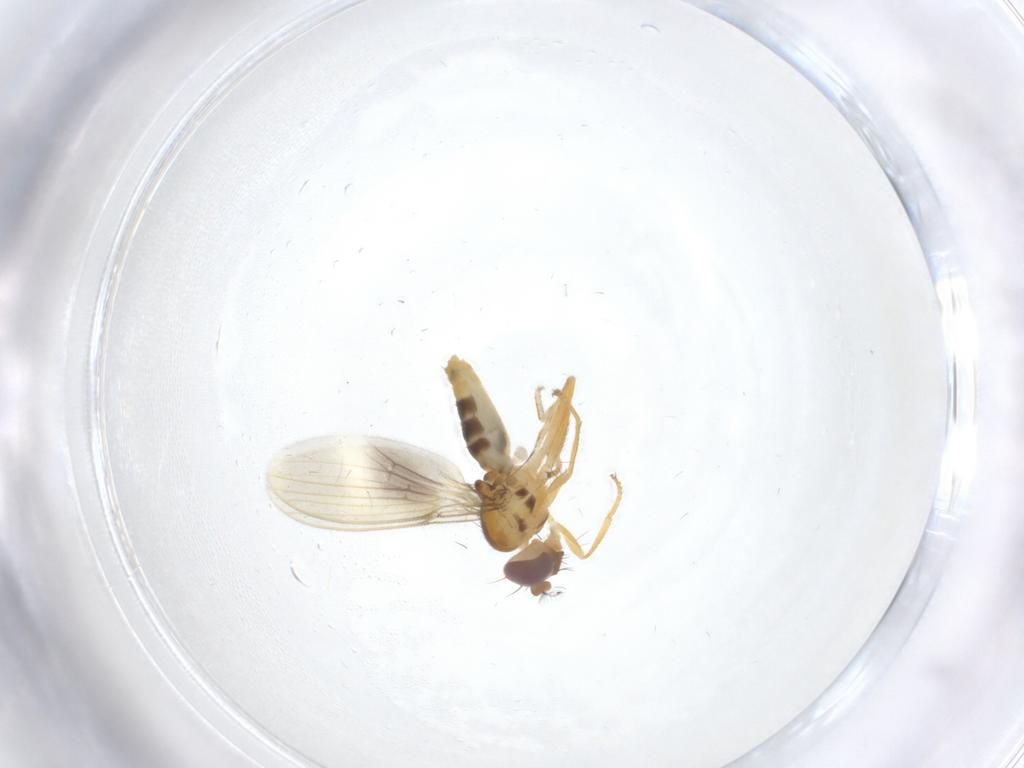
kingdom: Animalia
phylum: Arthropoda
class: Insecta
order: Diptera
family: Periscelididae
